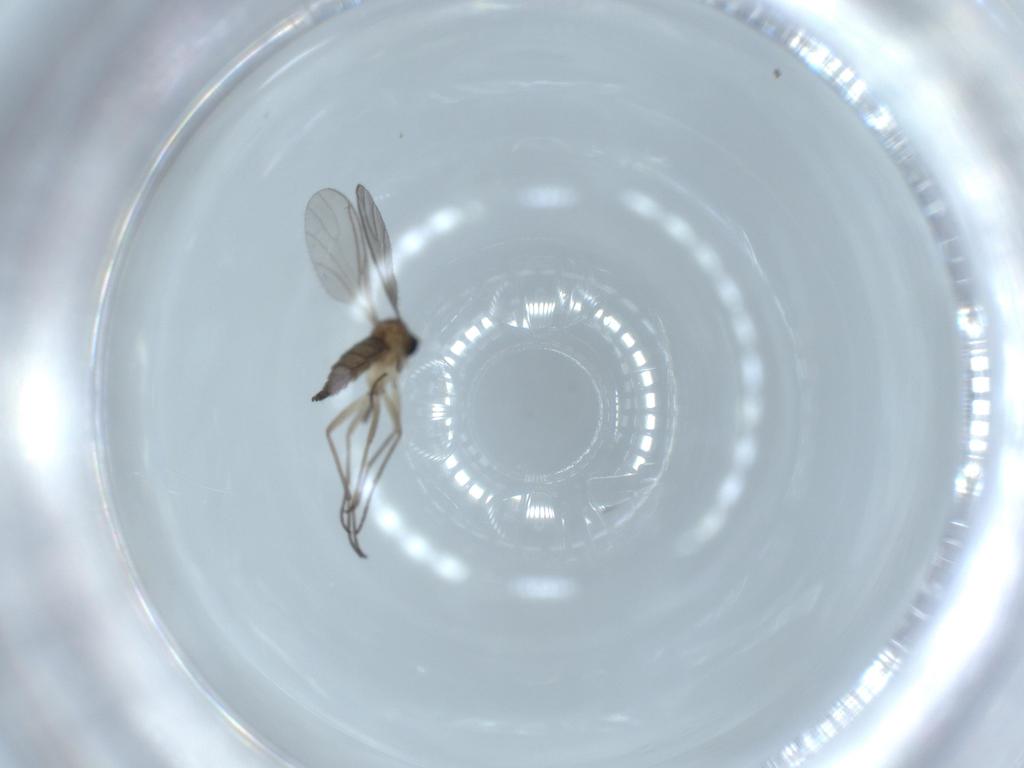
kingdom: Animalia
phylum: Arthropoda
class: Insecta
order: Diptera
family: Sciaridae
